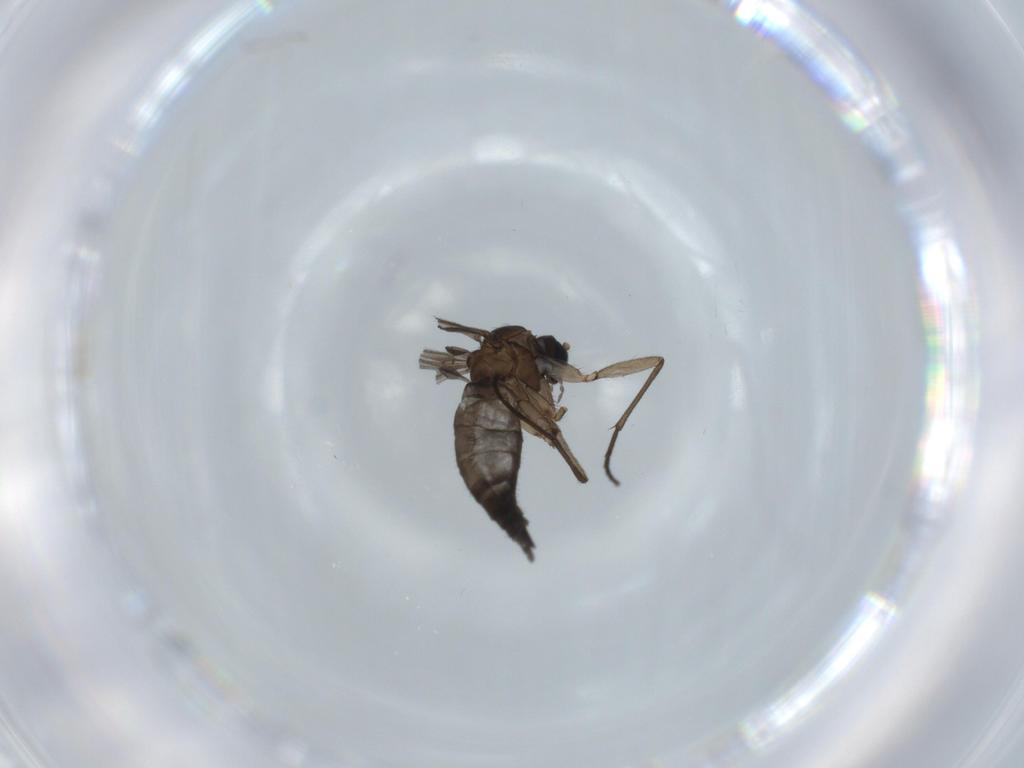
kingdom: Animalia
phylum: Arthropoda
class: Insecta
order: Diptera
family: Sciaridae
